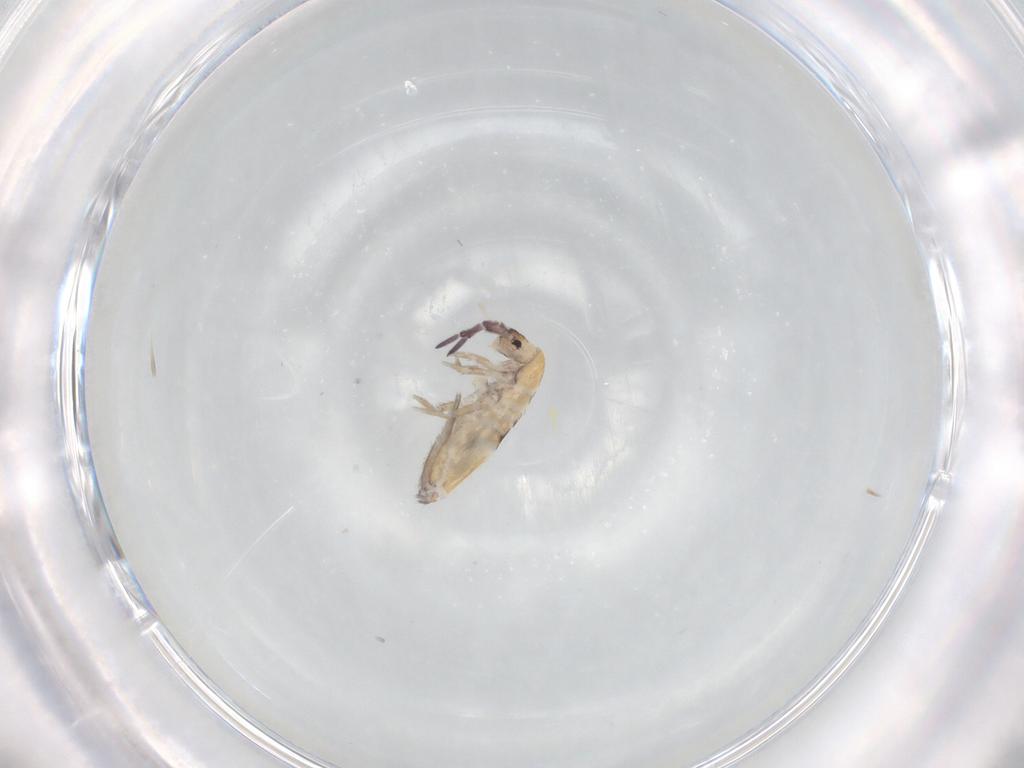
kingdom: Animalia
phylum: Arthropoda
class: Collembola
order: Entomobryomorpha
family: Entomobryidae
